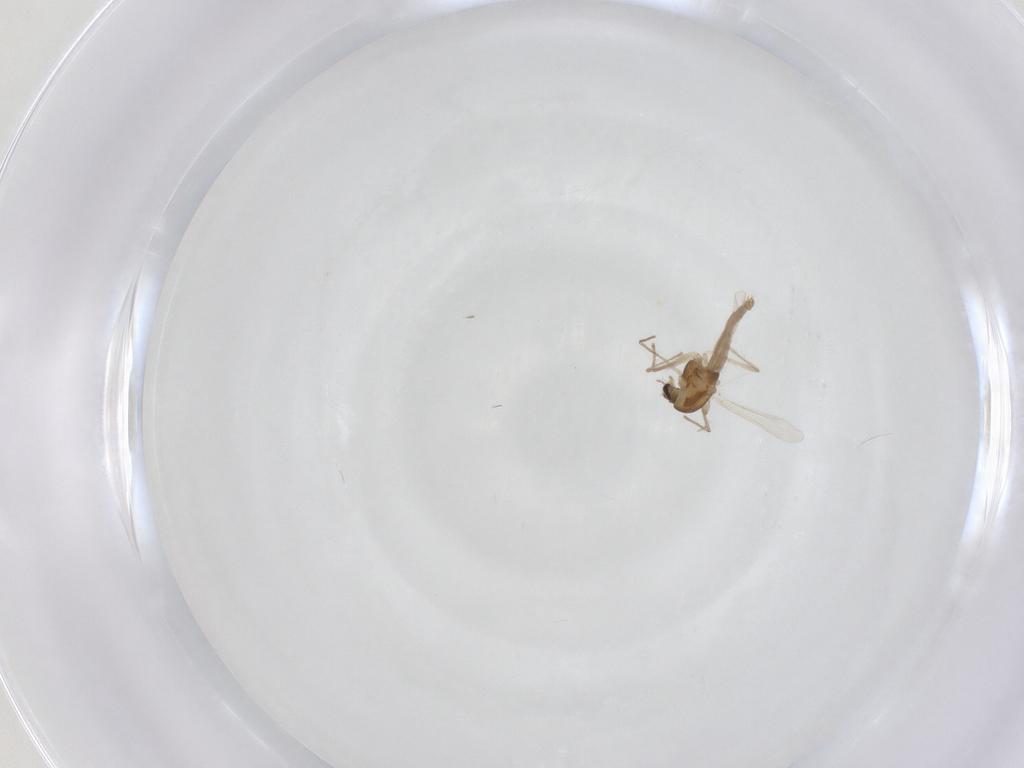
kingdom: Animalia
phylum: Arthropoda
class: Insecta
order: Diptera
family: Chironomidae
